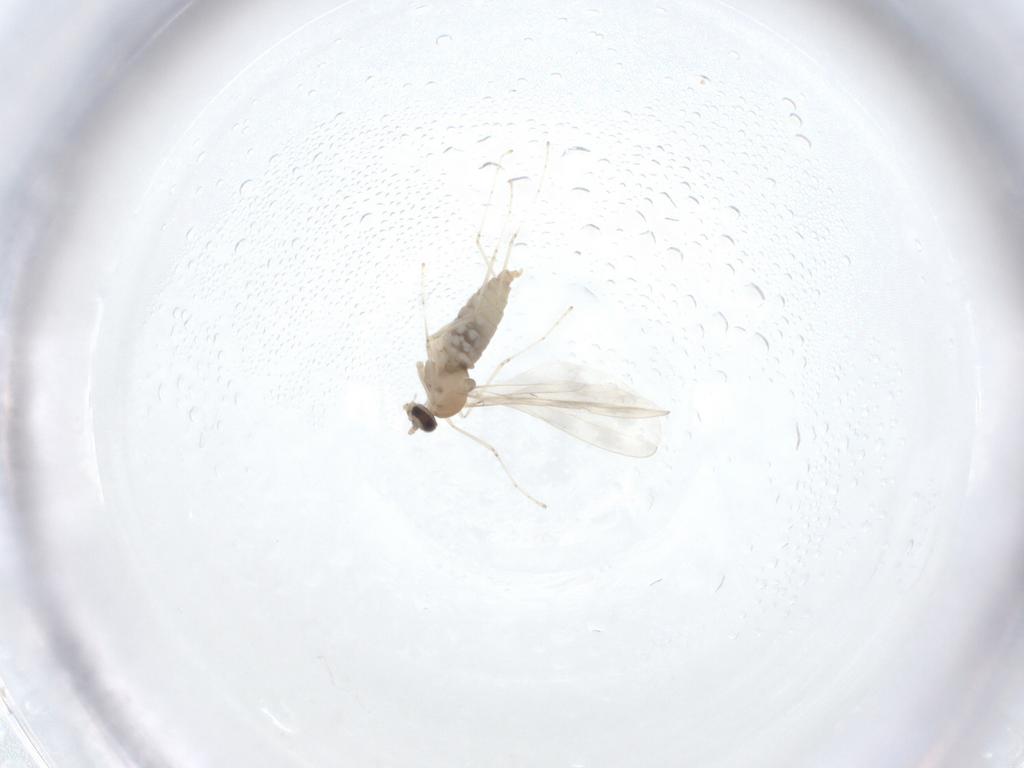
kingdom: Animalia
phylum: Arthropoda
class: Insecta
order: Diptera
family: Cecidomyiidae
